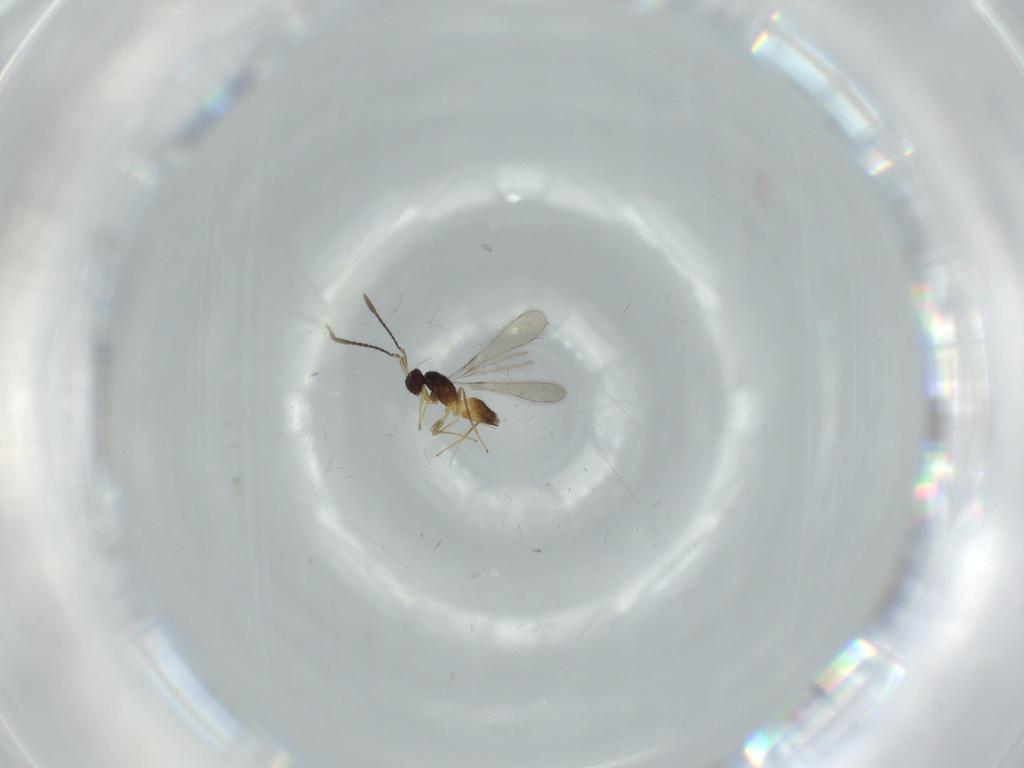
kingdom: Animalia
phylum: Arthropoda
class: Insecta
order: Hymenoptera
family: Mymaridae
